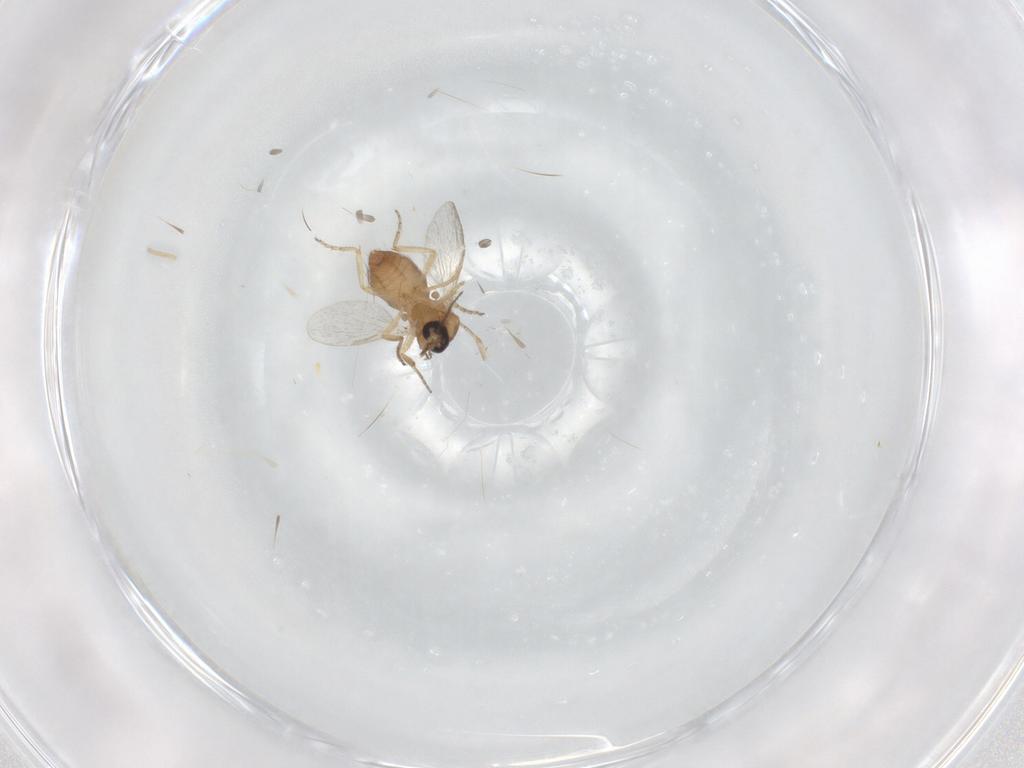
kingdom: Animalia
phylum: Arthropoda
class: Insecta
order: Diptera
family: Ceratopogonidae
